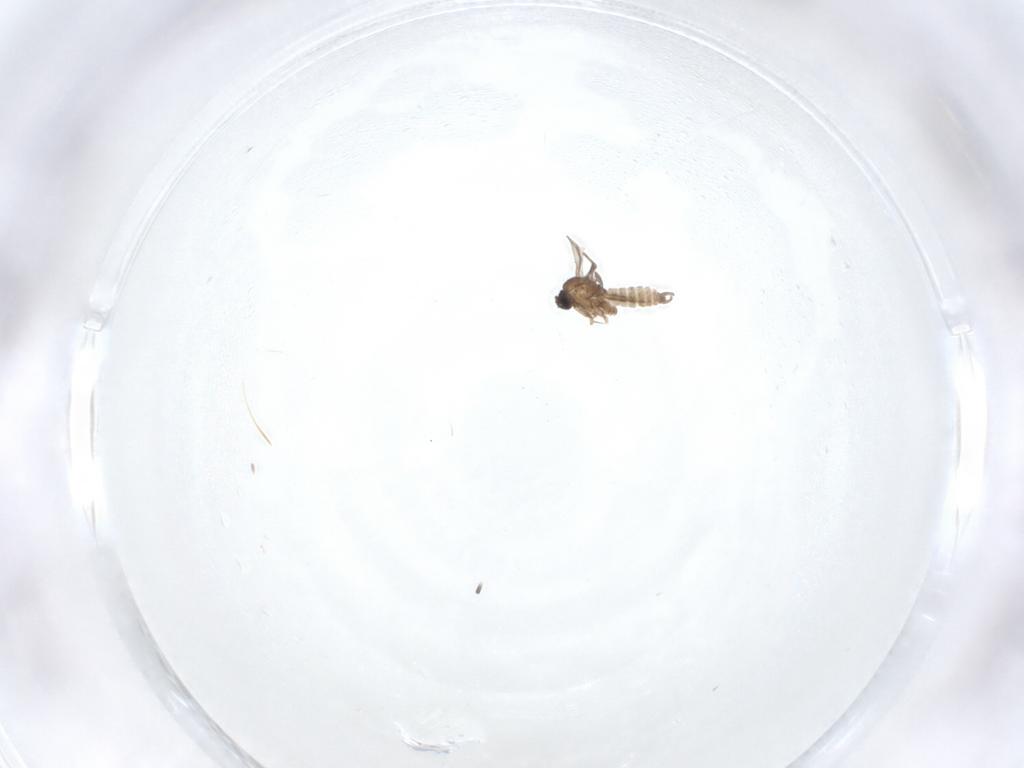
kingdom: Animalia
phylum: Arthropoda
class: Insecta
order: Diptera
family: Sciaridae
